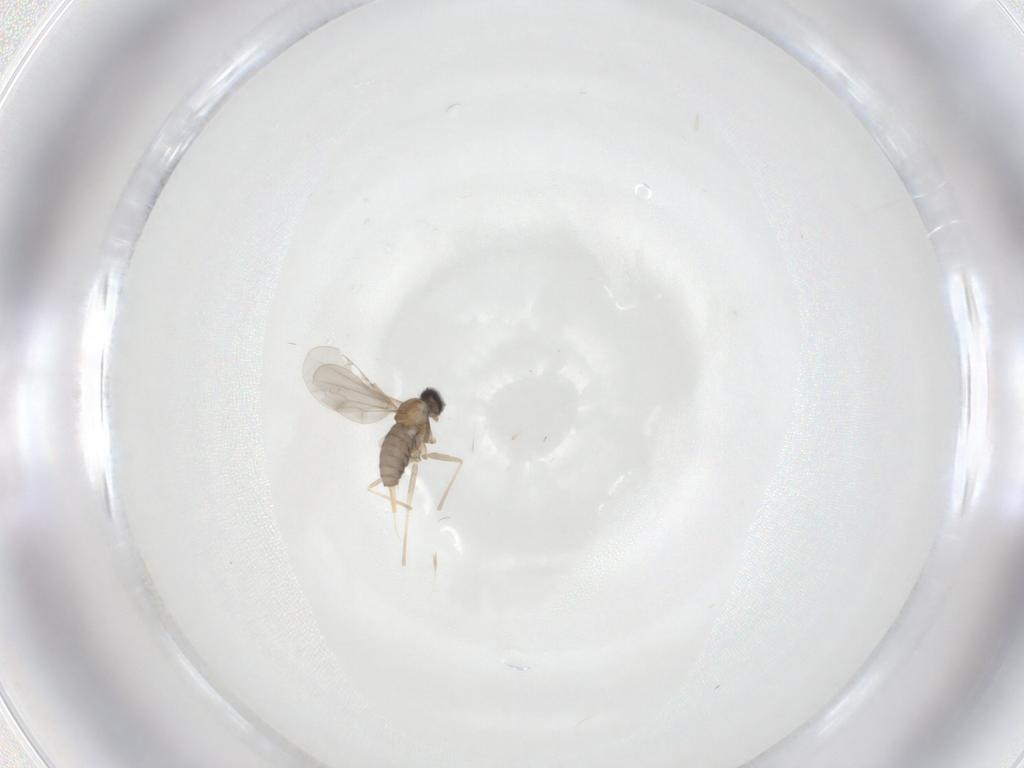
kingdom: Animalia
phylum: Arthropoda
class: Insecta
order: Diptera
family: Cecidomyiidae
